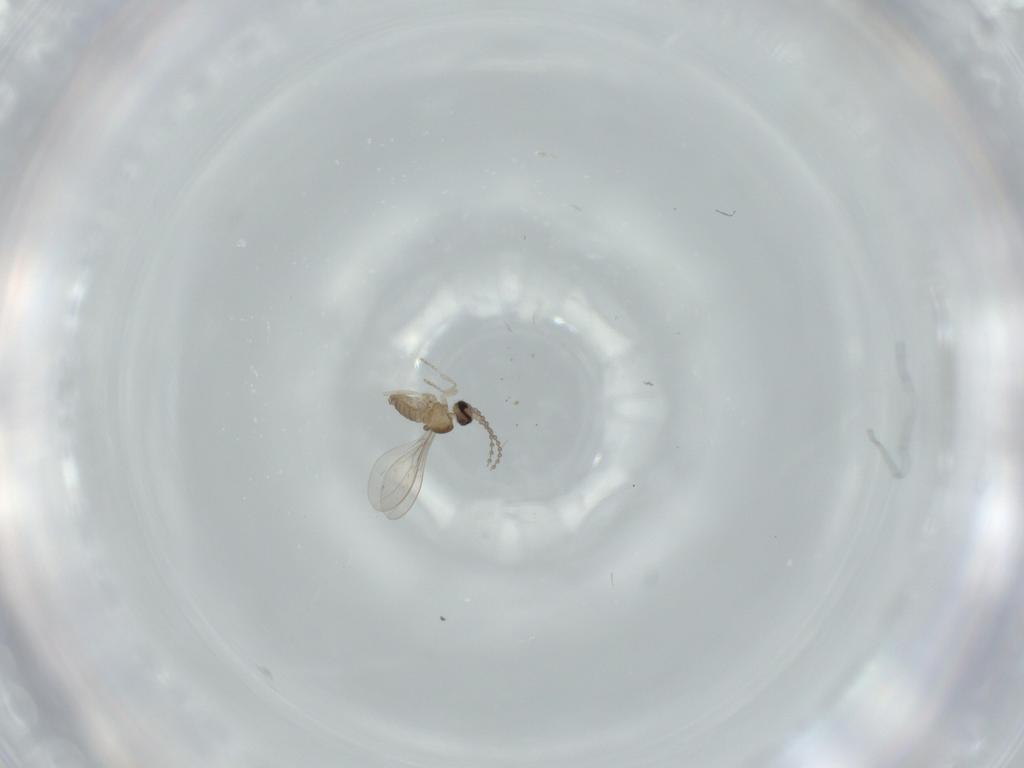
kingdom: Animalia
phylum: Arthropoda
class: Insecta
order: Diptera
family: Cecidomyiidae
